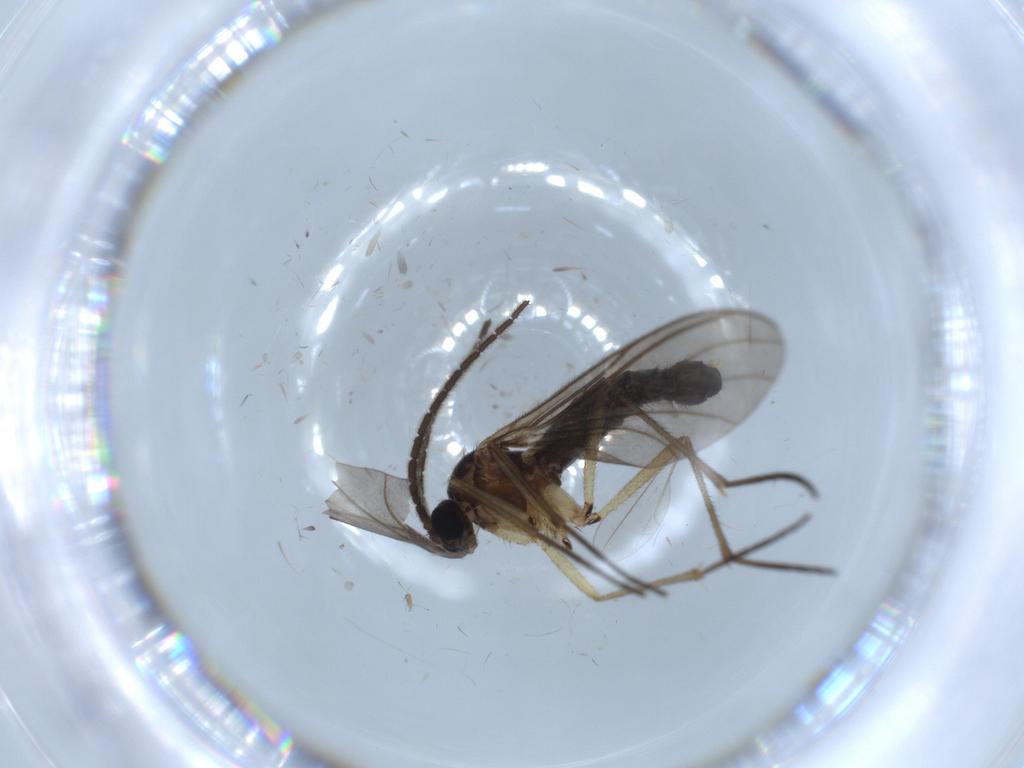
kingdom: Animalia
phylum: Arthropoda
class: Insecta
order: Diptera
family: Sciaridae
